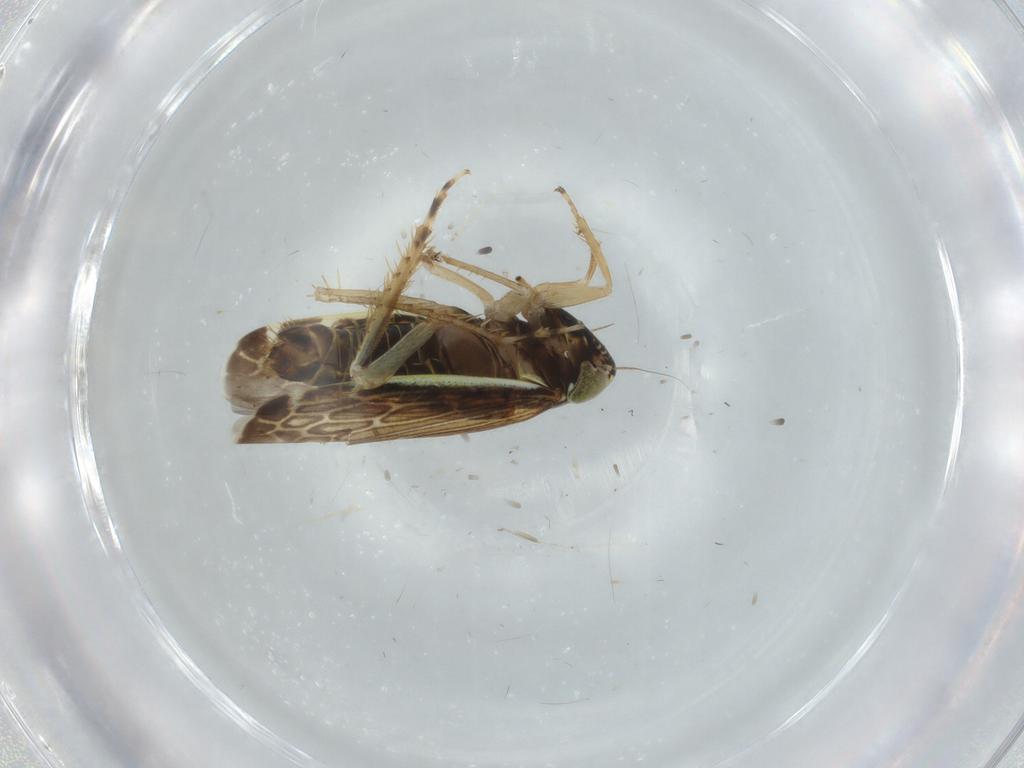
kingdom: Animalia
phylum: Arthropoda
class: Insecta
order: Hemiptera
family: Cicadellidae
